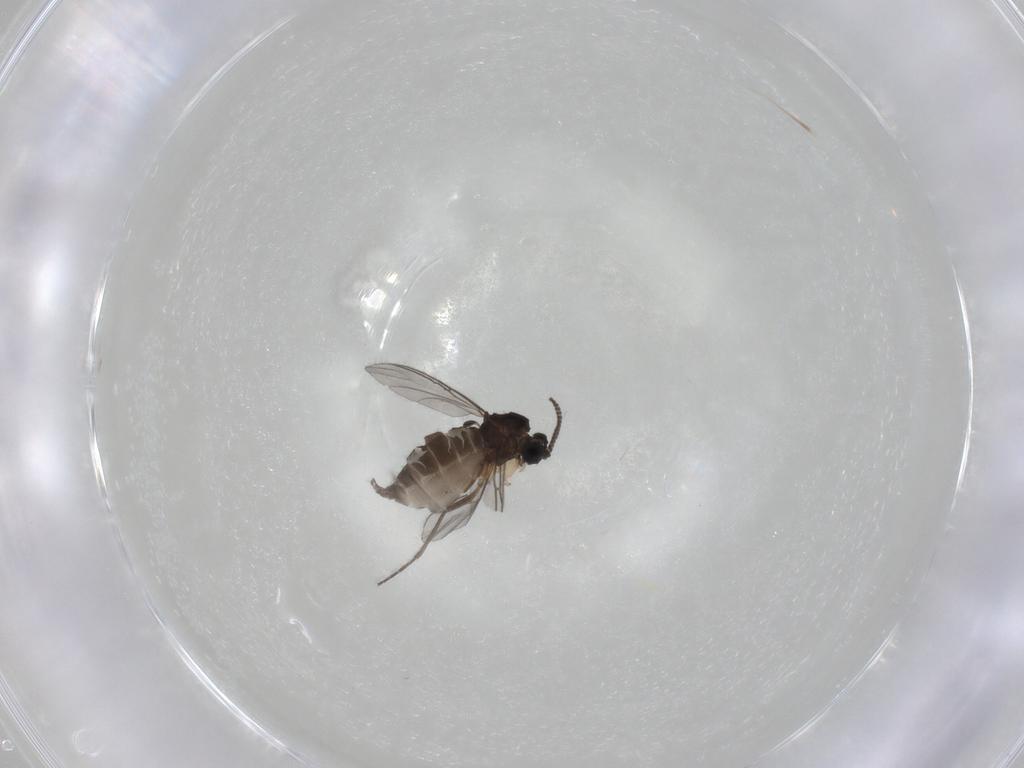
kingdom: Animalia
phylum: Arthropoda
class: Insecta
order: Diptera
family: Sciaridae
